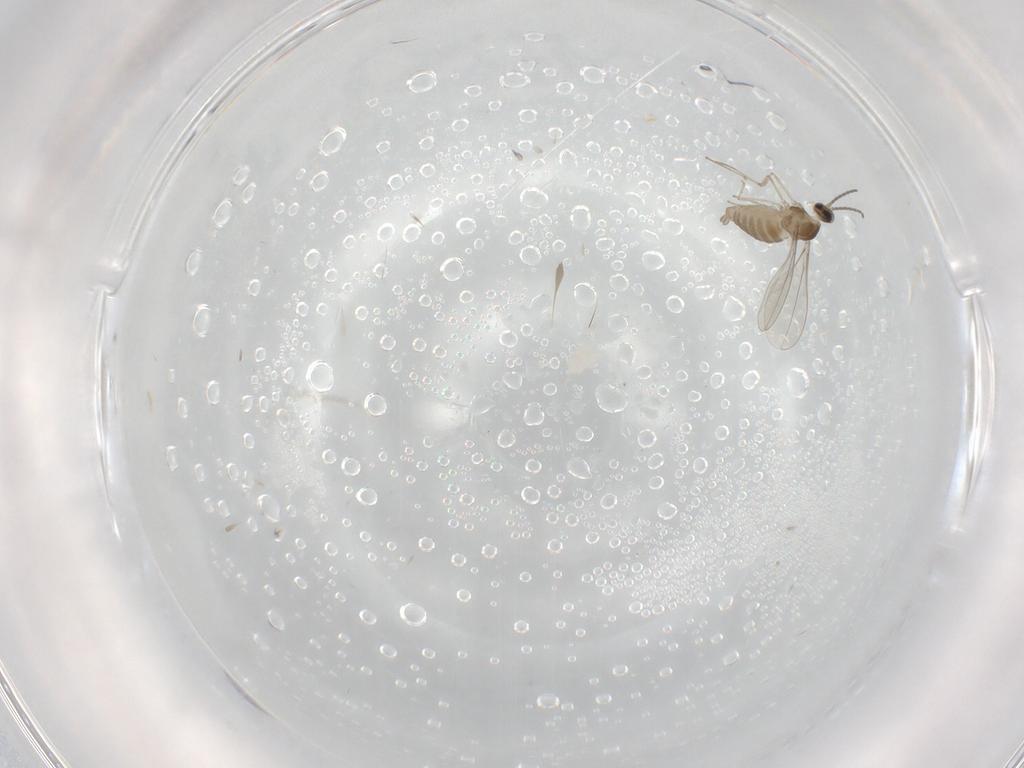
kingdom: Animalia
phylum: Arthropoda
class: Insecta
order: Diptera
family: Cecidomyiidae
